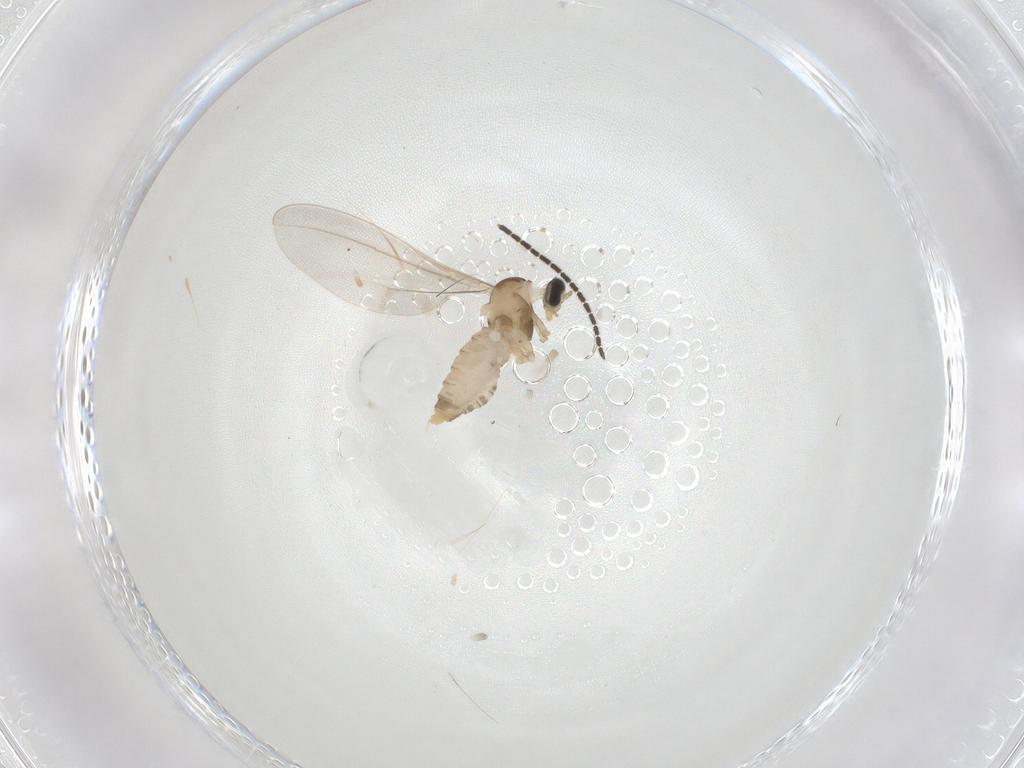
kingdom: Animalia
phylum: Arthropoda
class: Insecta
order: Diptera
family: Cecidomyiidae
